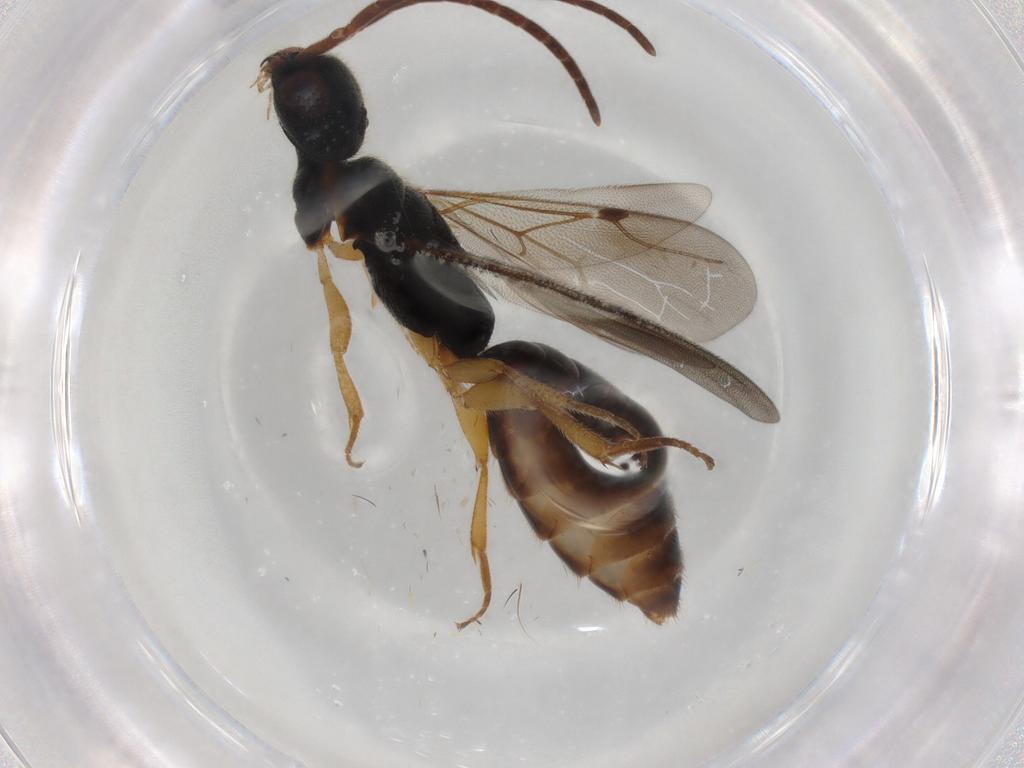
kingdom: Animalia
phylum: Arthropoda
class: Insecta
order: Hymenoptera
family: Bethylidae
